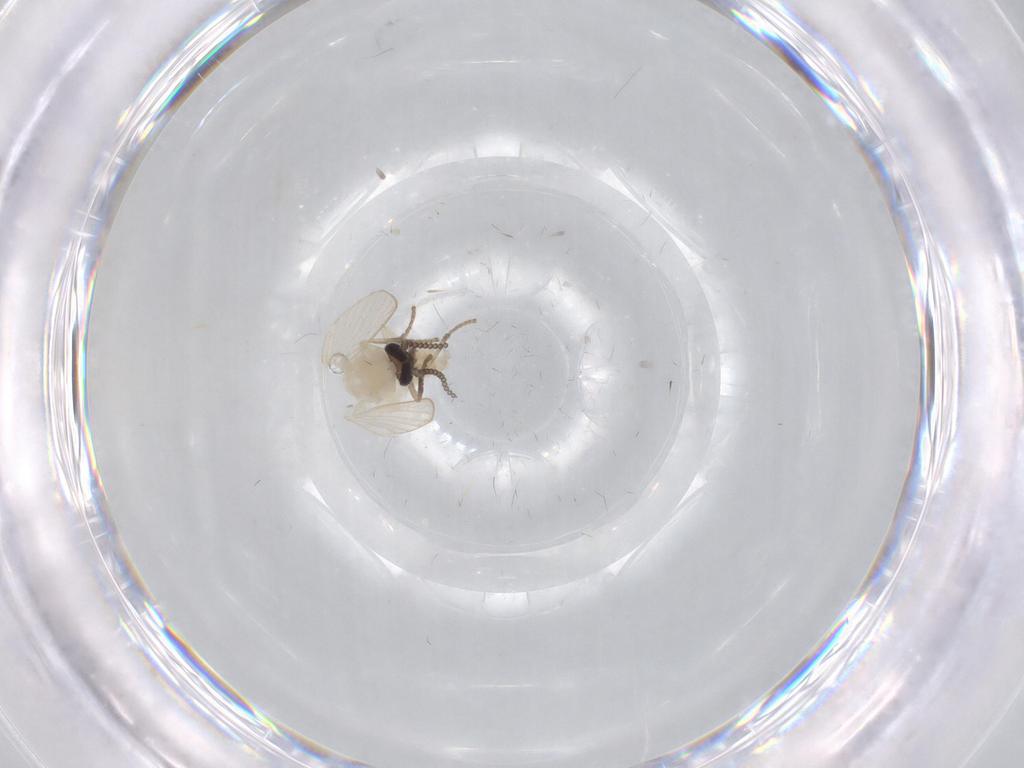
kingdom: Animalia
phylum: Arthropoda
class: Insecta
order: Diptera
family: Psychodidae
